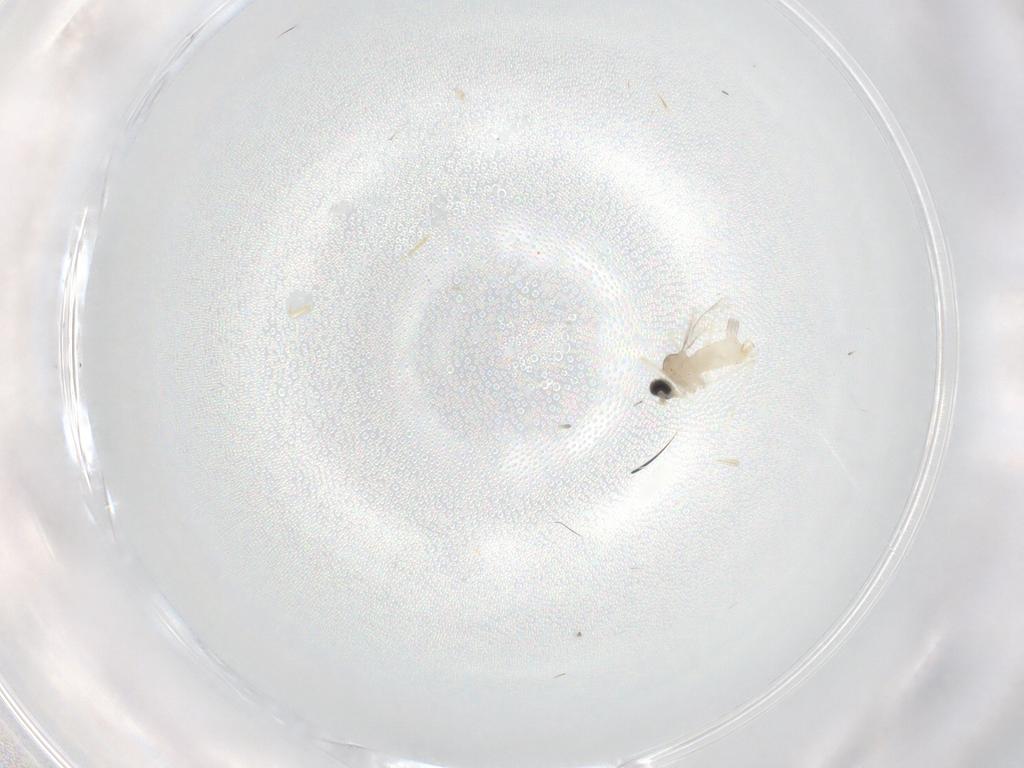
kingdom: Animalia
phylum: Arthropoda
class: Insecta
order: Diptera
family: Cecidomyiidae
